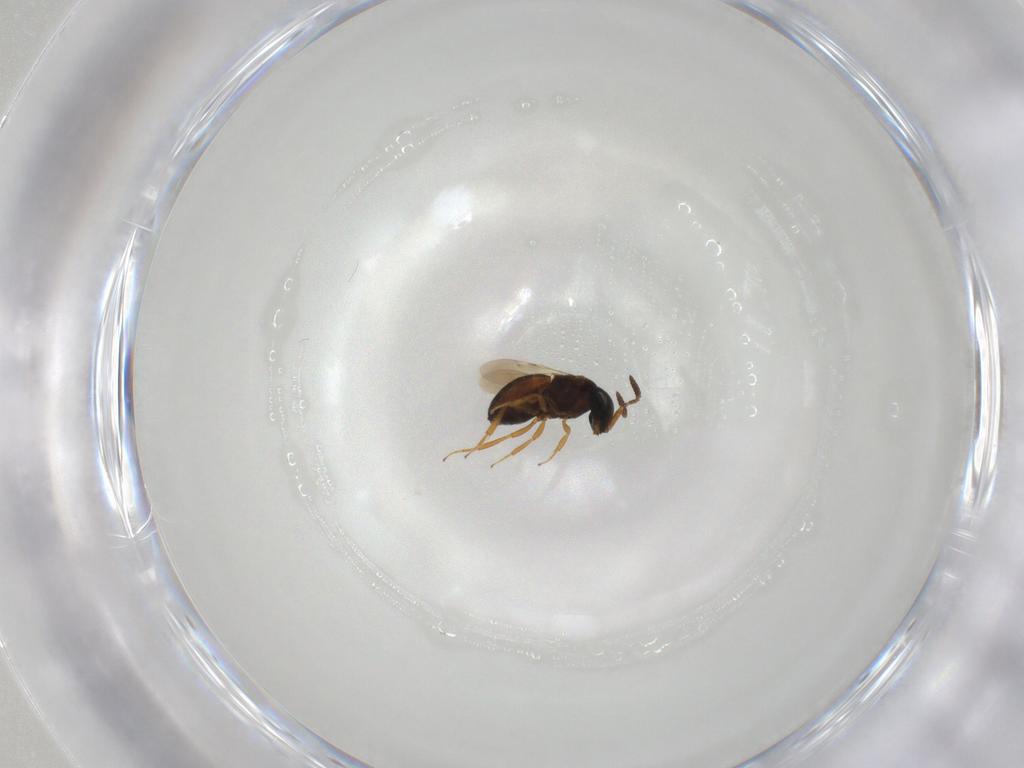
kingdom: Animalia
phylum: Arthropoda
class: Insecta
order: Hymenoptera
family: Scelionidae
